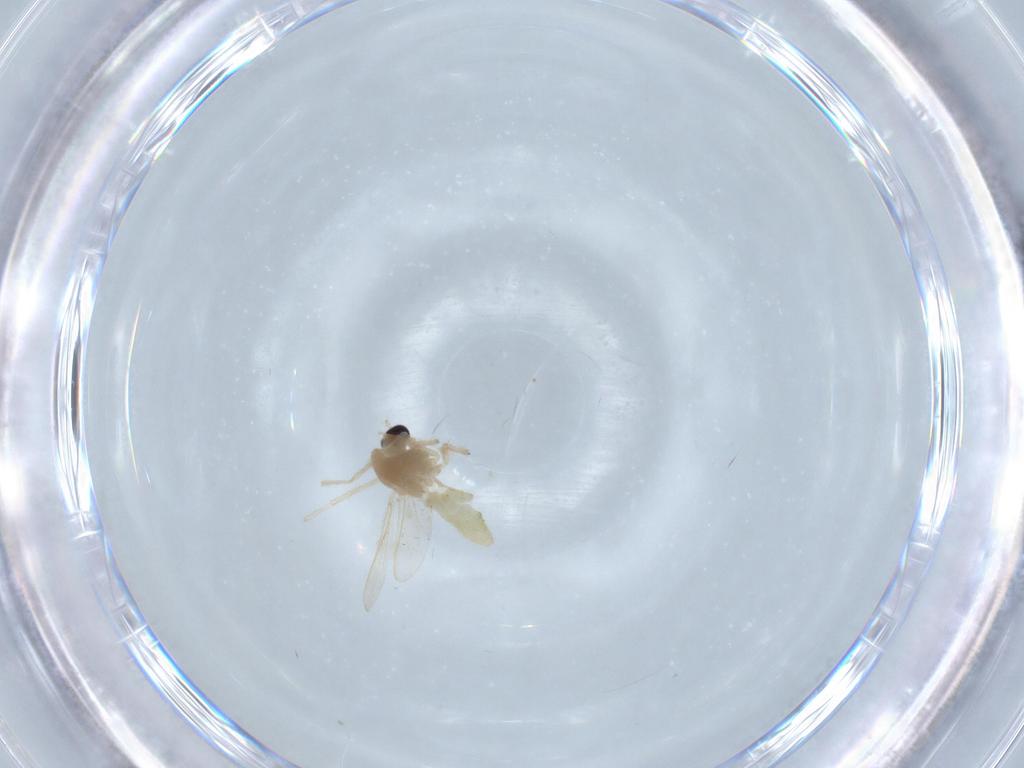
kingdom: Animalia
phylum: Arthropoda
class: Insecta
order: Diptera
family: Chironomidae
